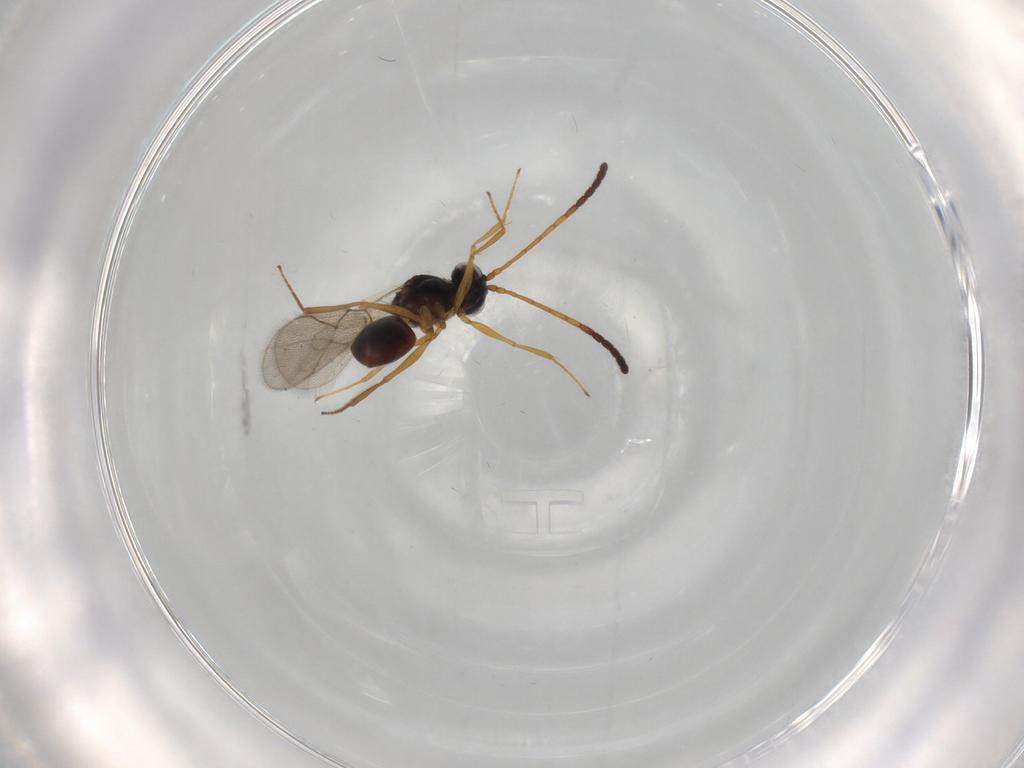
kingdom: Animalia
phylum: Arthropoda
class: Insecta
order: Hymenoptera
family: Figitidae
